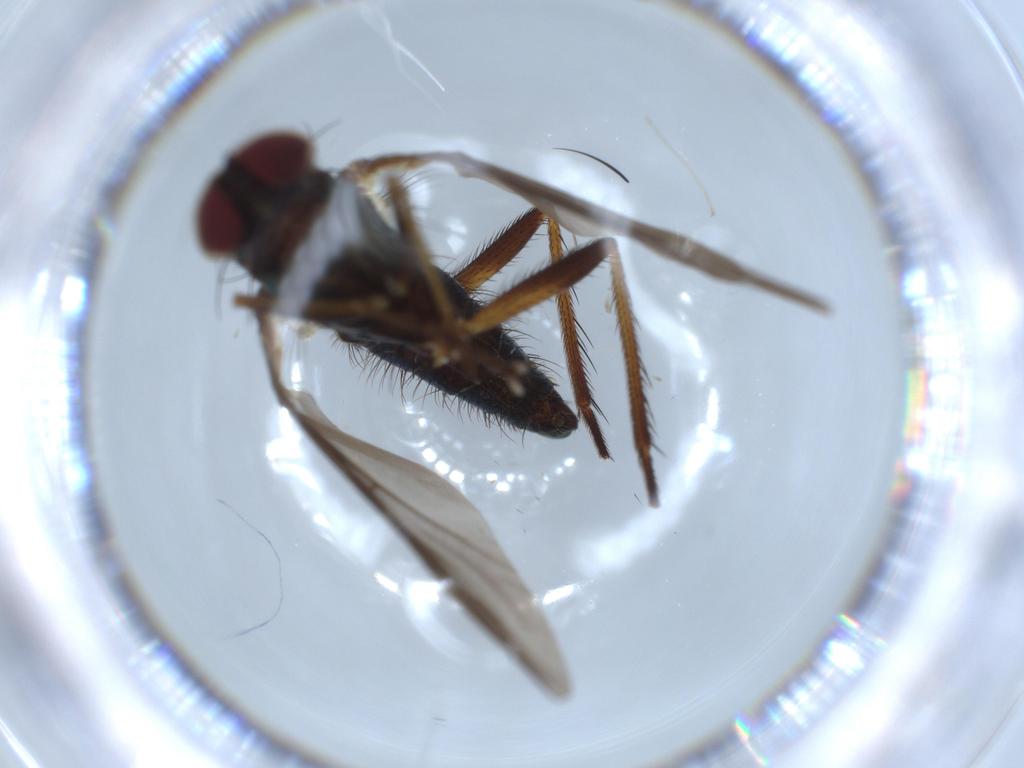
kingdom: Animalia
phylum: Arthropoda
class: Insecta
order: Diptera
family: Dolichopodidae
